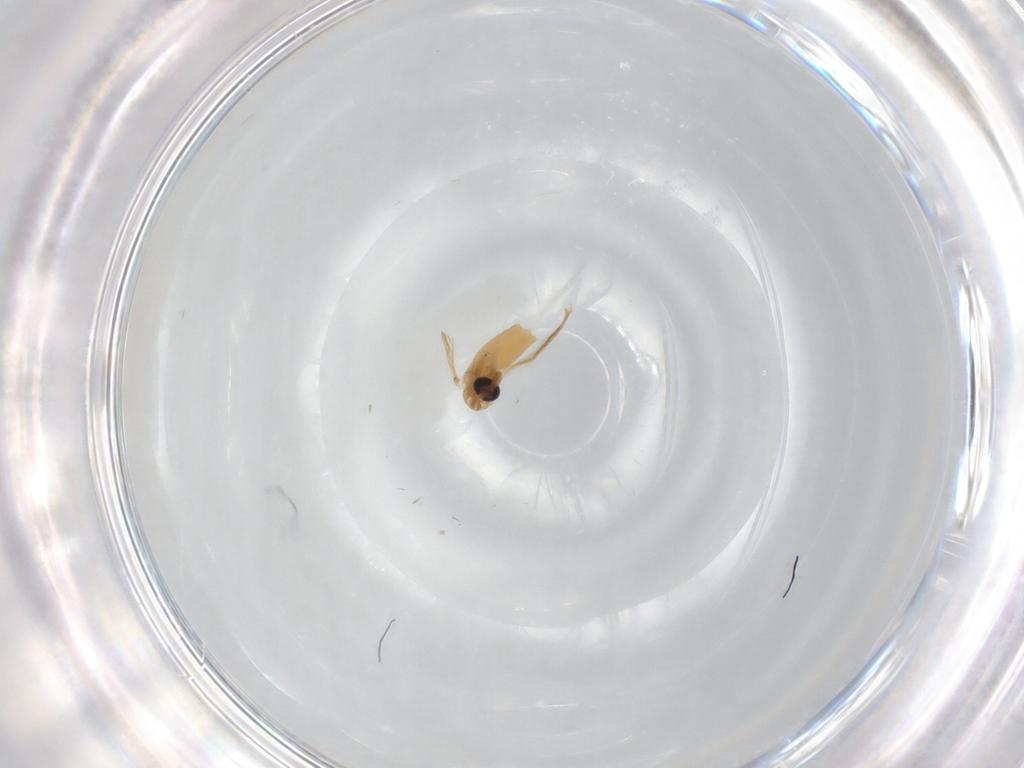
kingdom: Animalia
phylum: Arthropoda
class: Insecta
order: Diptera
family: Chironomidae
